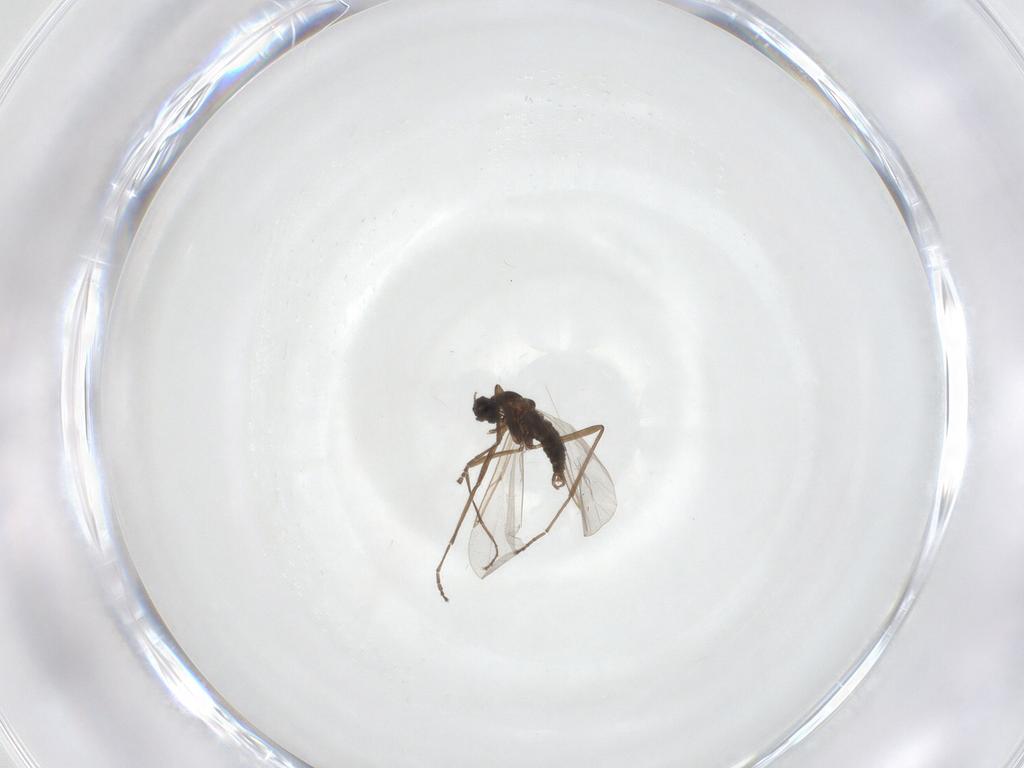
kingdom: Animalia
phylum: Arthropoda
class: Insecta
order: Diptera
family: Cecidomyiidae
